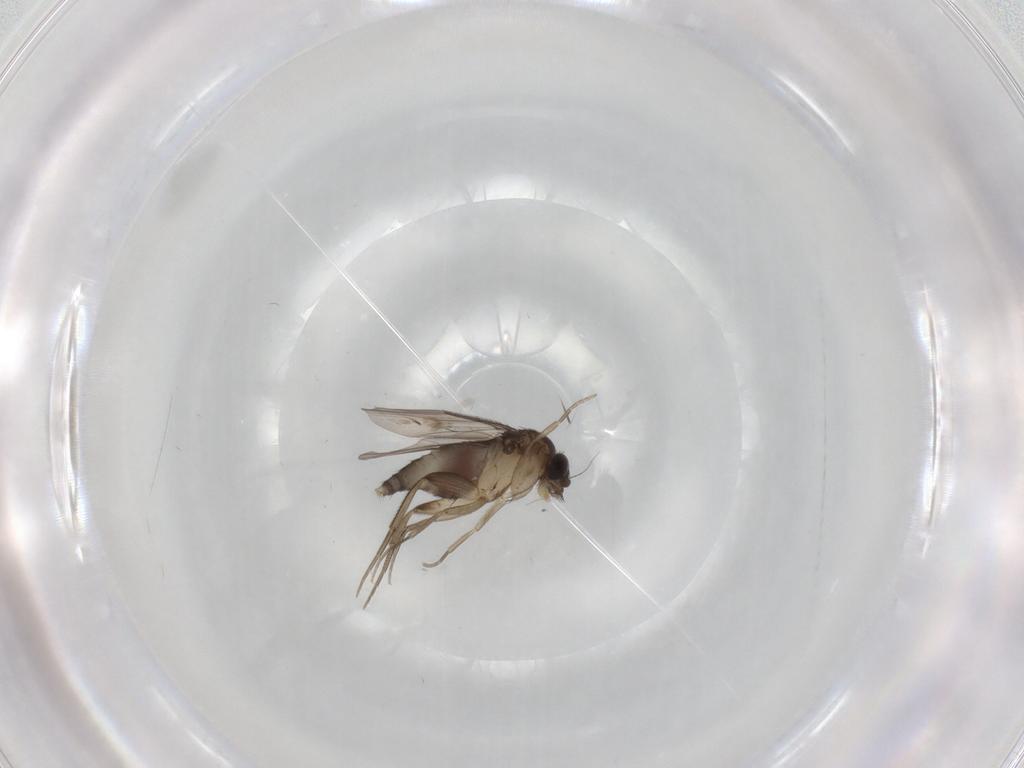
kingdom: Animalia
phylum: Arthropoda
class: Insecta
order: Diptera
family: Phoridae
